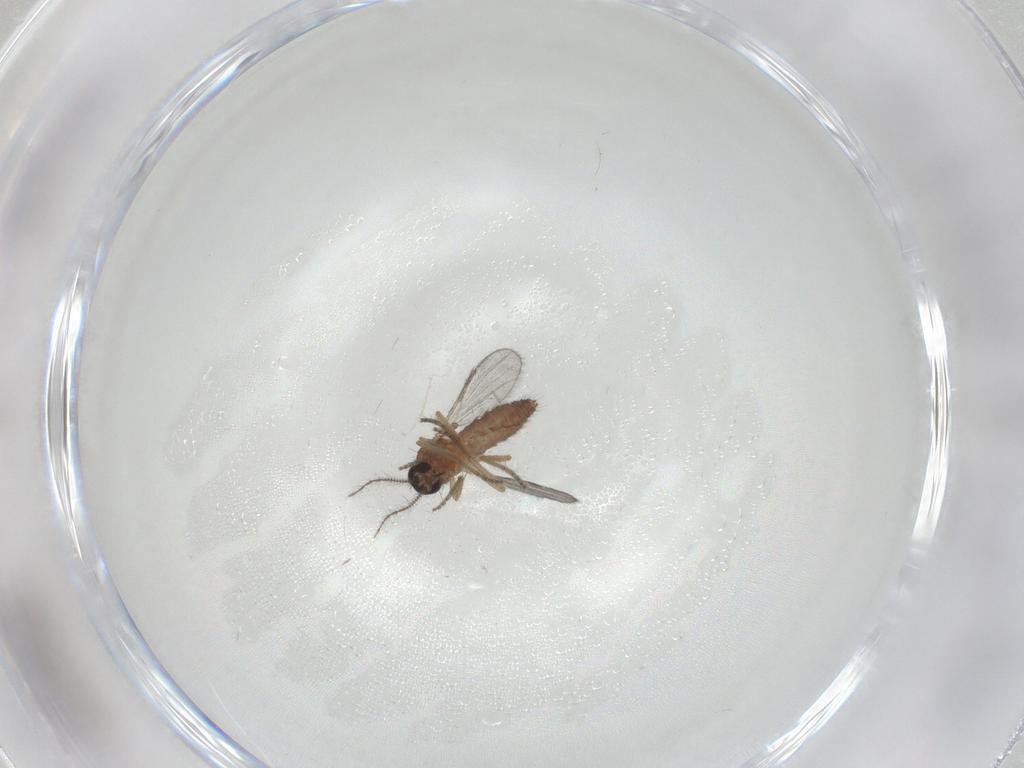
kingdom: Animalia
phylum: Arthropoda
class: Insecta
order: Diptera
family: Ceratopogonidae
